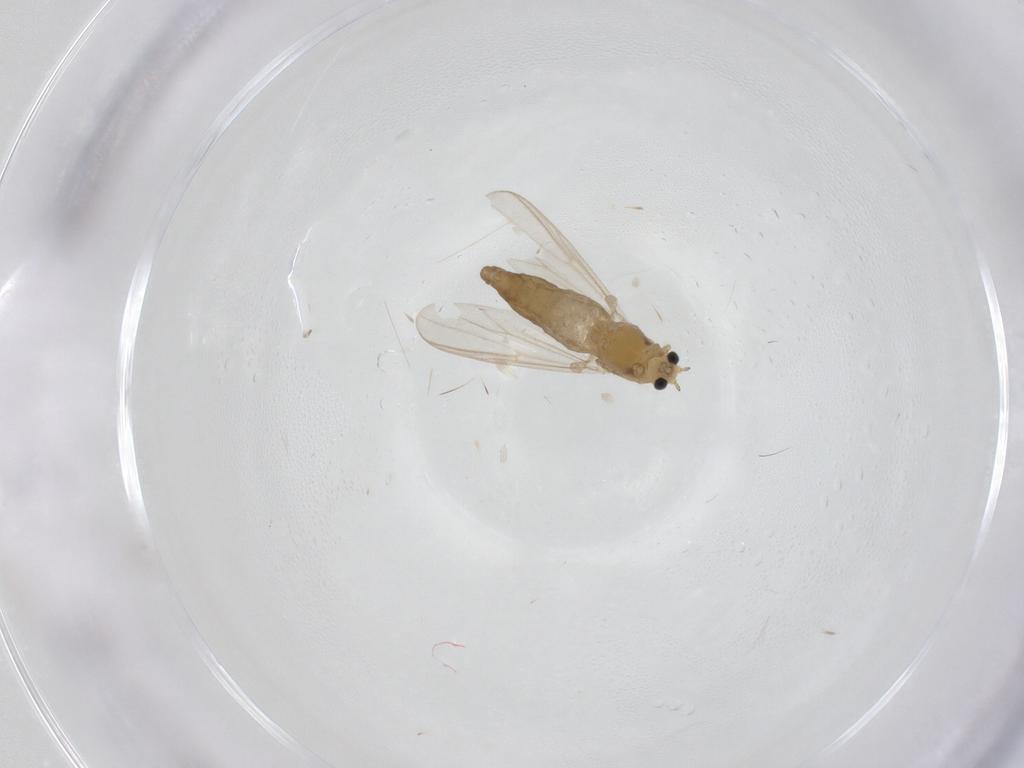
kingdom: Animalia
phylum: Arthropoda
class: Insecta
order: Diptera
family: Chironomidae
